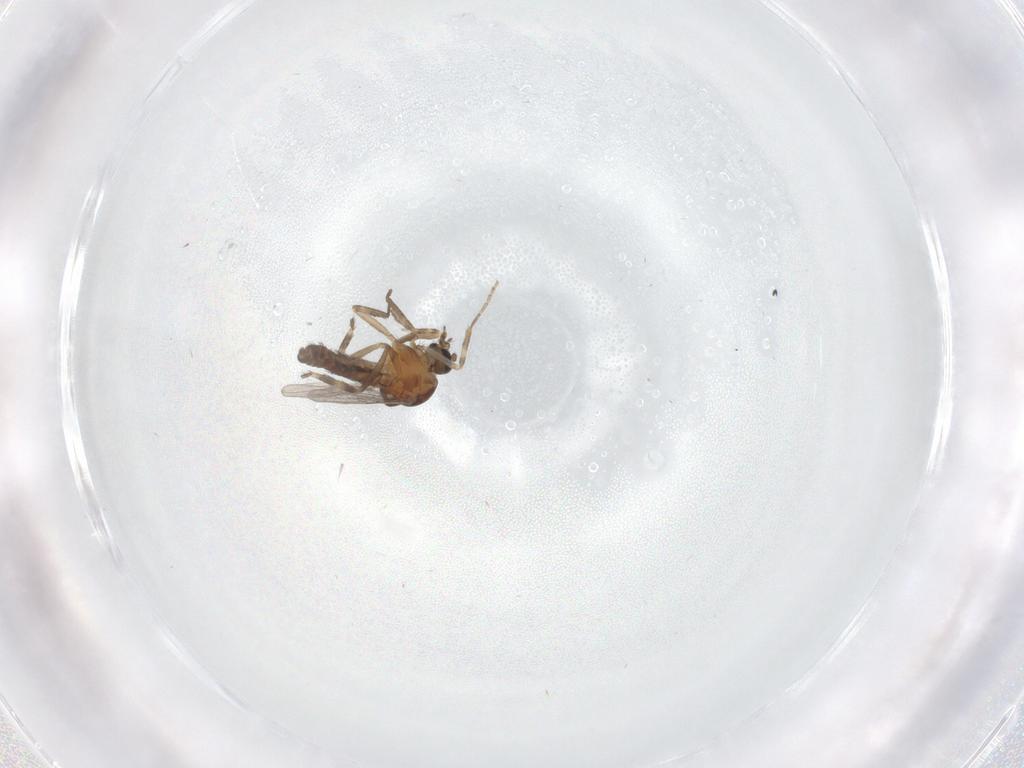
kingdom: Animalia
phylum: Arthropoda
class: Insecta
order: Diptera
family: Ceratopogonidae
